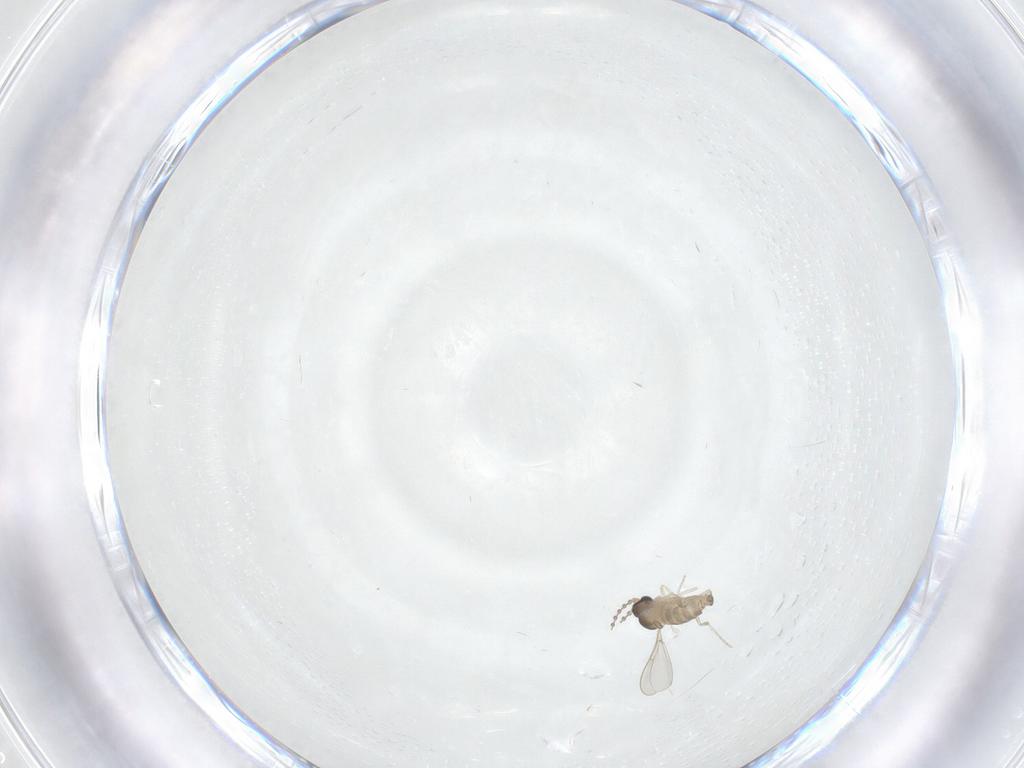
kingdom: Animalia
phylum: Arthropoda
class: Insecta
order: Diptera
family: Cecidomyiidae
